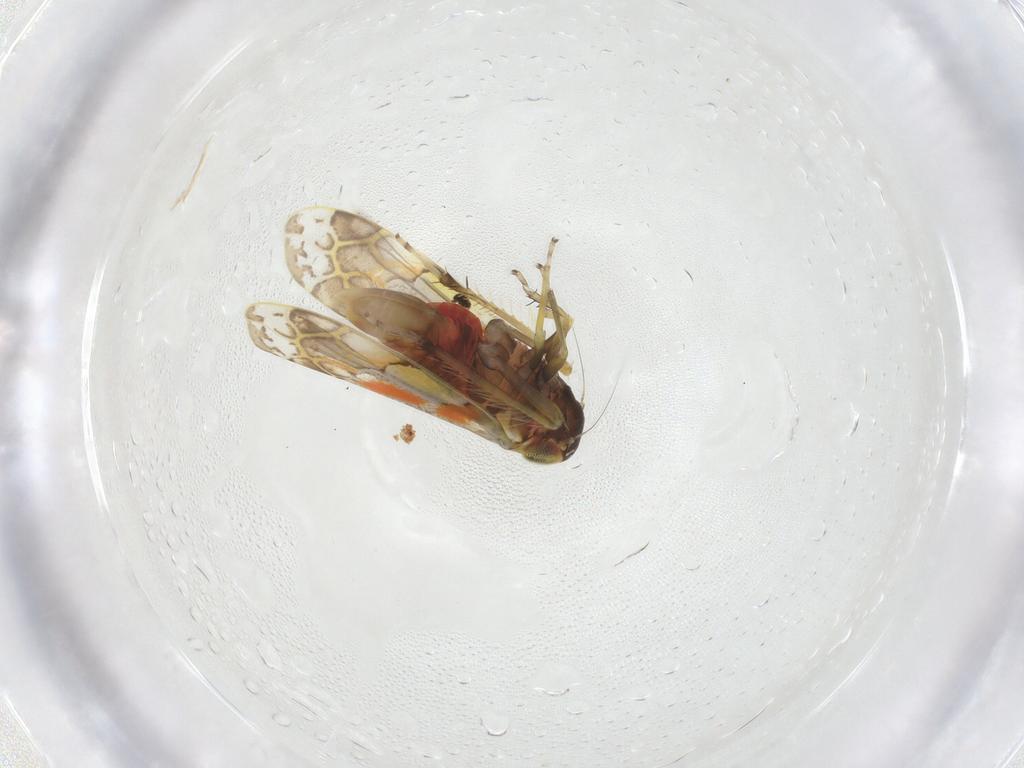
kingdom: Animalia
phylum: Arthropoda
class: Insecta
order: Hemiptera
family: Cicadellidae
